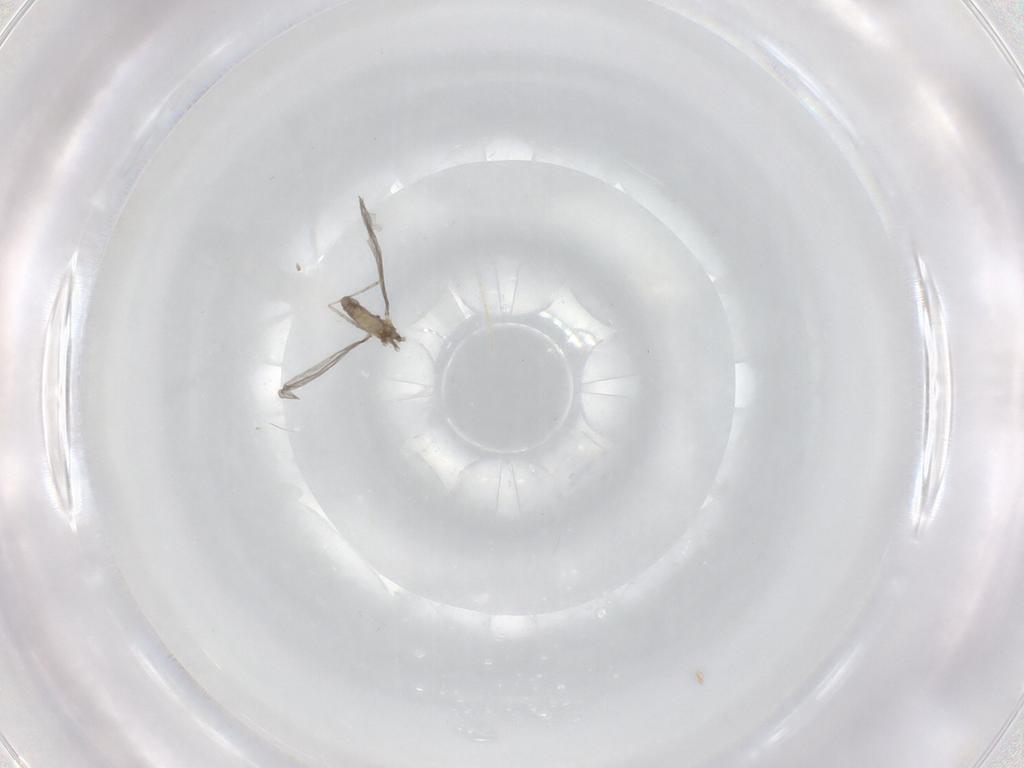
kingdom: Animalia
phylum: Arthropoda
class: Insecta
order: Diptera
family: Cecidomyiidae
